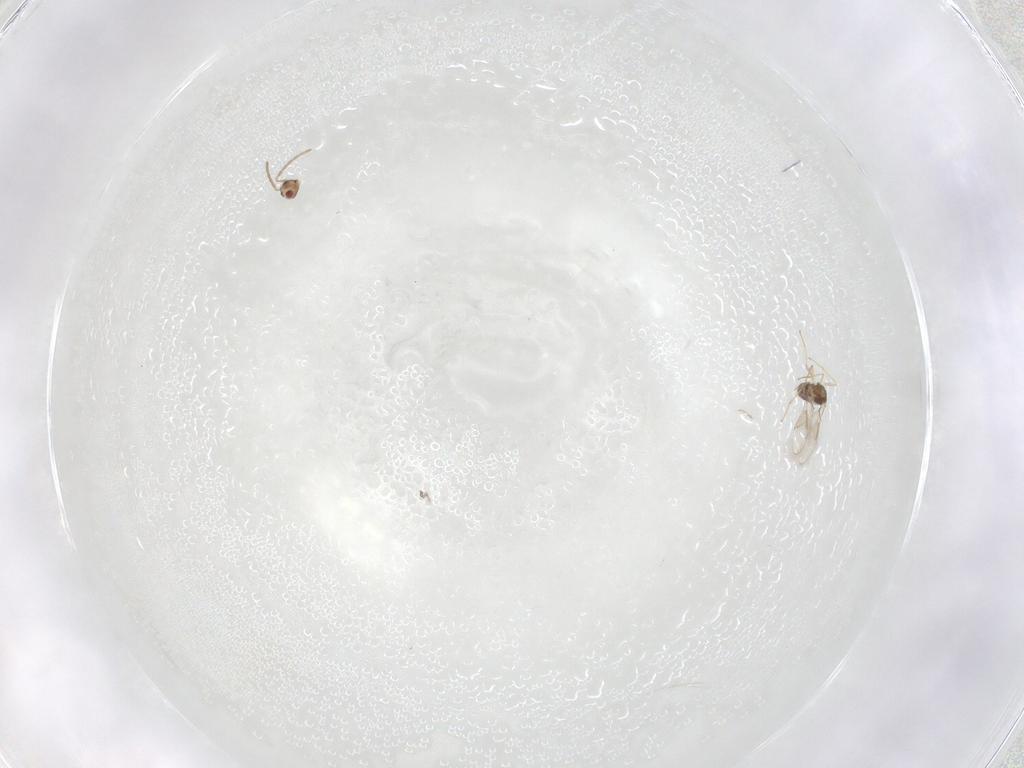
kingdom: Animalia
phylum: Arthropoda
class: Insecta
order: Hymenoptera
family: Aphelinidae
